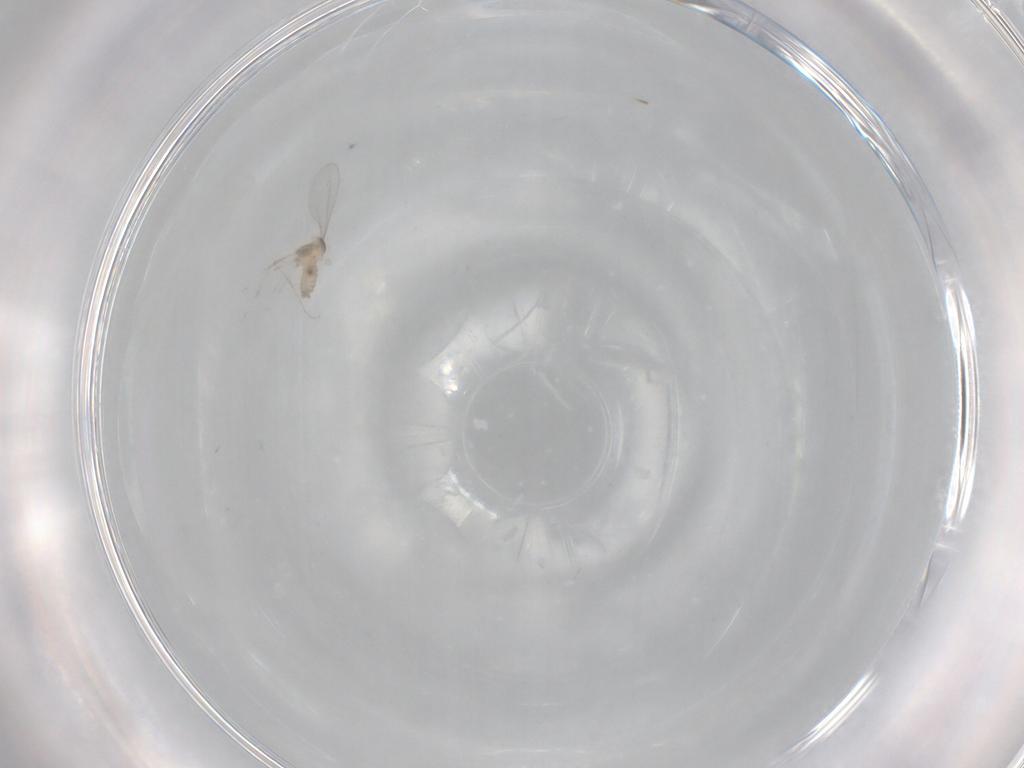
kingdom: Animalia
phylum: Arthropoda
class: Insecta
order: Diptera
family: Cecidomyiidae
